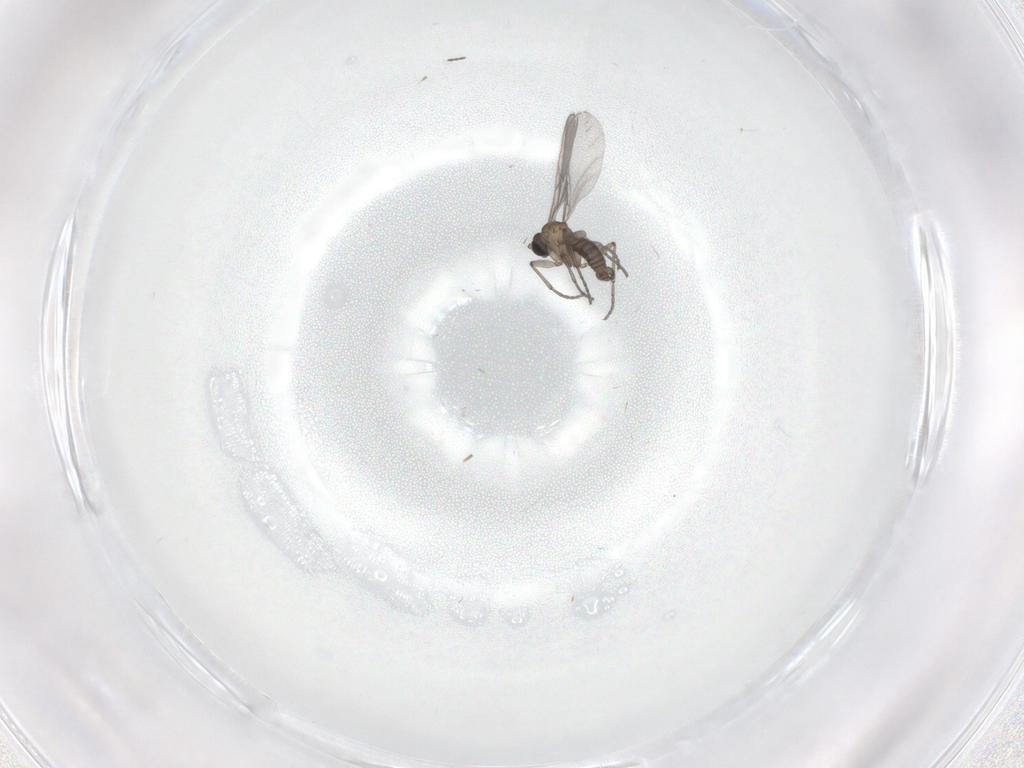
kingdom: Animalia
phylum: Arthropoda
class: Insecta
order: Diptera
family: Sciaridae
